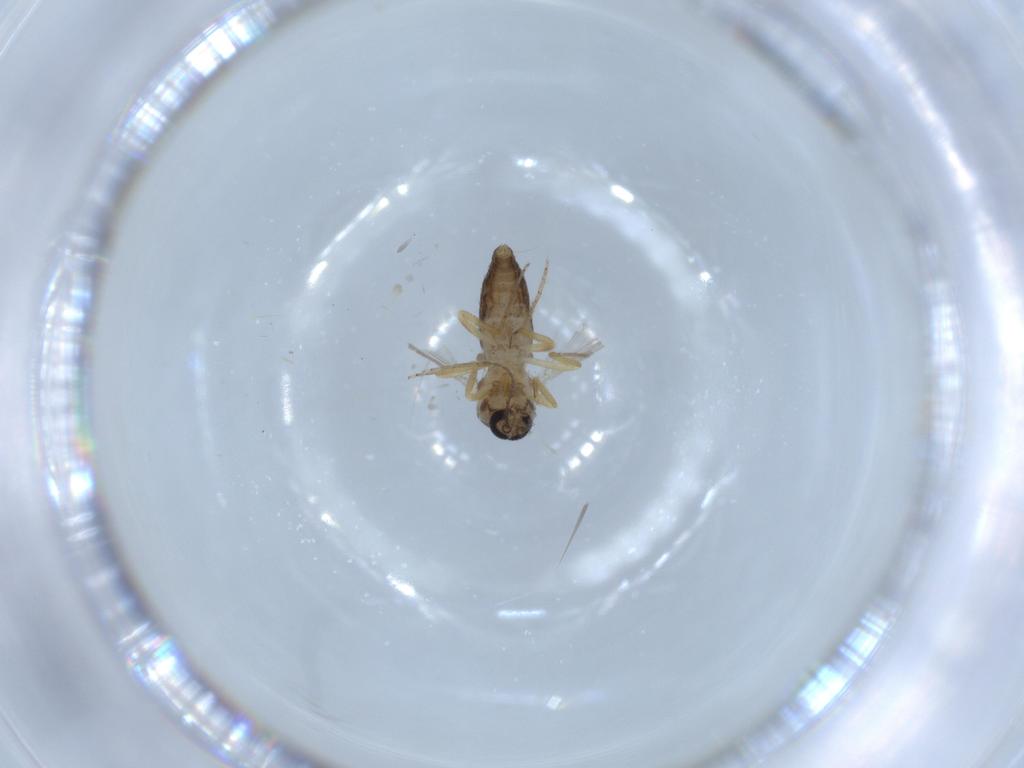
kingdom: Animalia
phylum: Arthropoda
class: Insecta
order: Diptera
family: Ceratopogonidae
